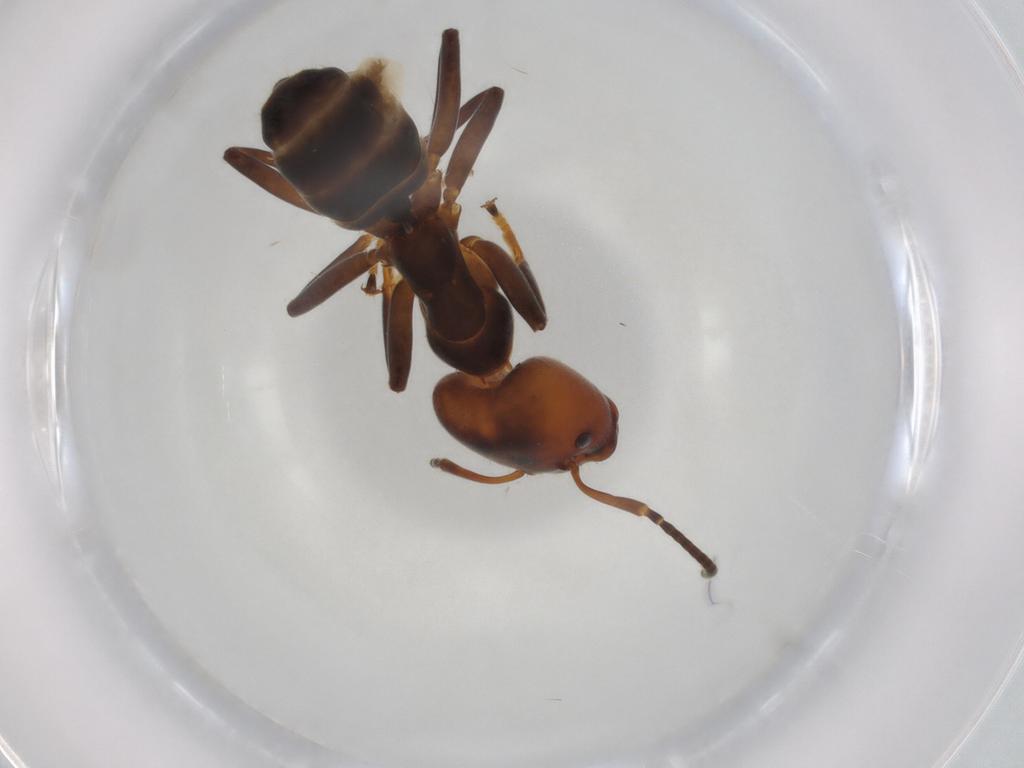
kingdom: Animalia
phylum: Arthropoda
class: Insecta
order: Hymenoptera
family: Formicidae
